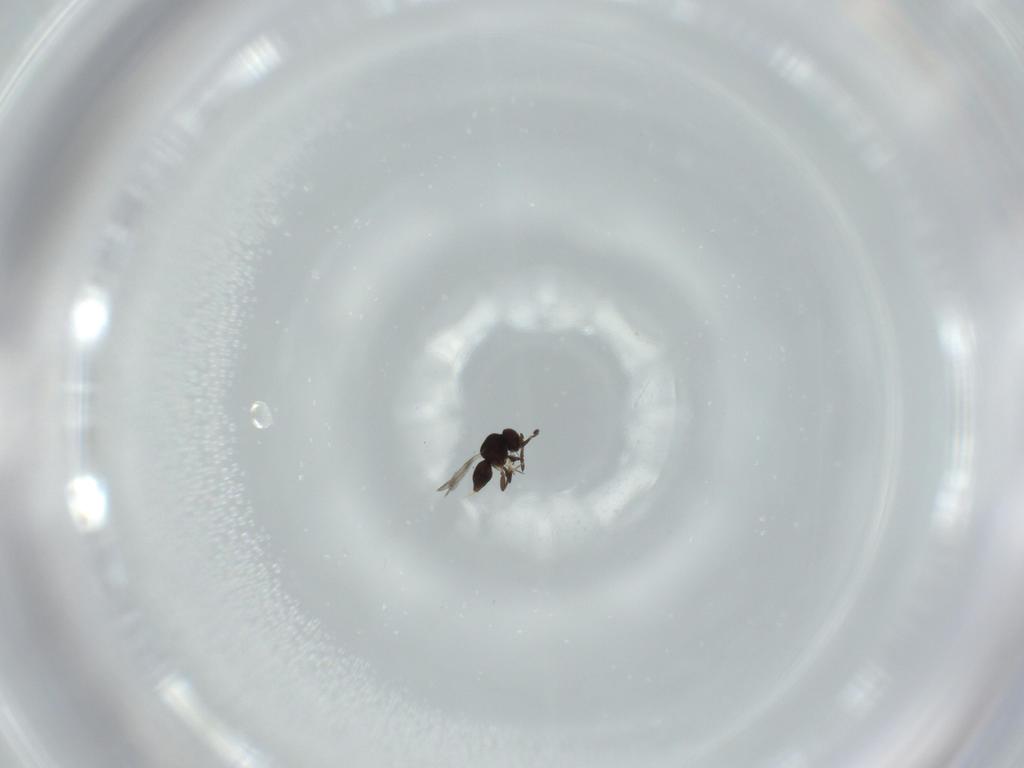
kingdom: Animalia
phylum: Arthropoda
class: Insecta
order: Hymenoptera
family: Ceraphronidae
